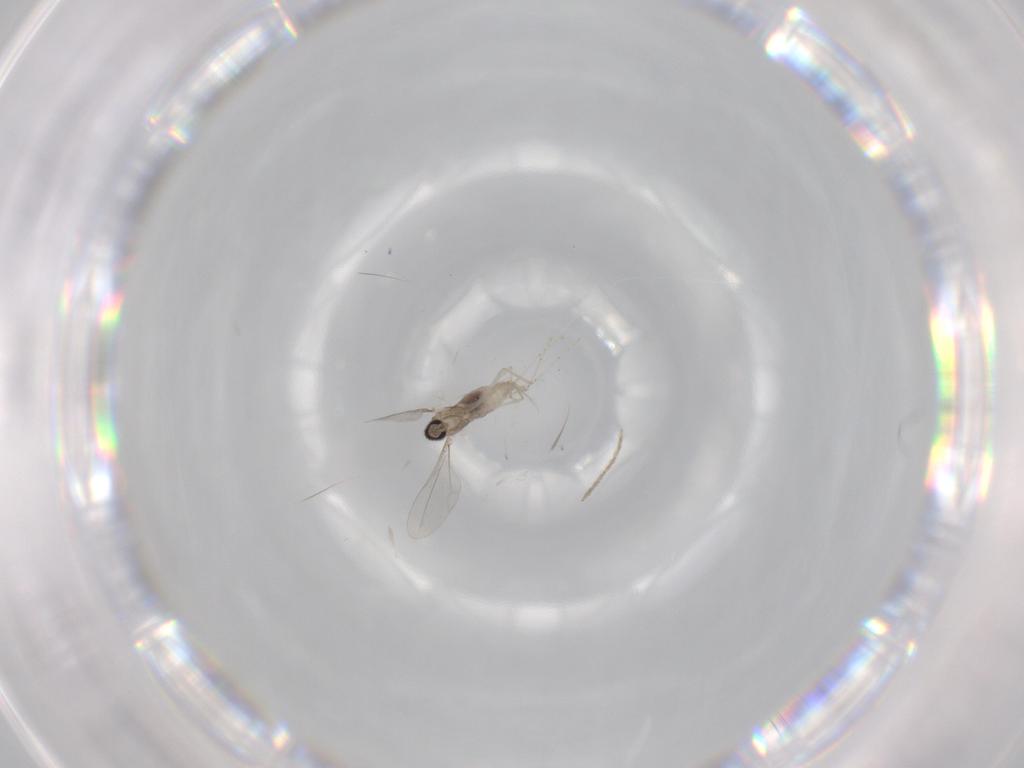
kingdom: Animalia
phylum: Arthropoda
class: Insecta
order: Diptera
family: Cecidomyiidae
